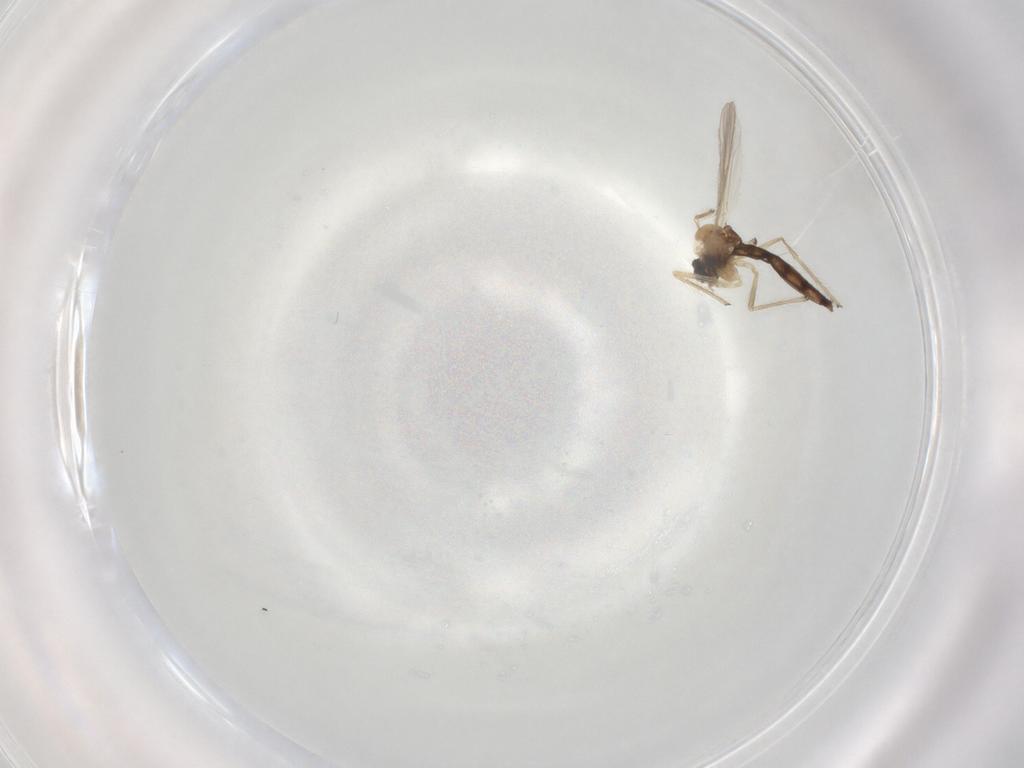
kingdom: Animalia
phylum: Arthropoda
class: Insecta
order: Diptera
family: Chironomidae
